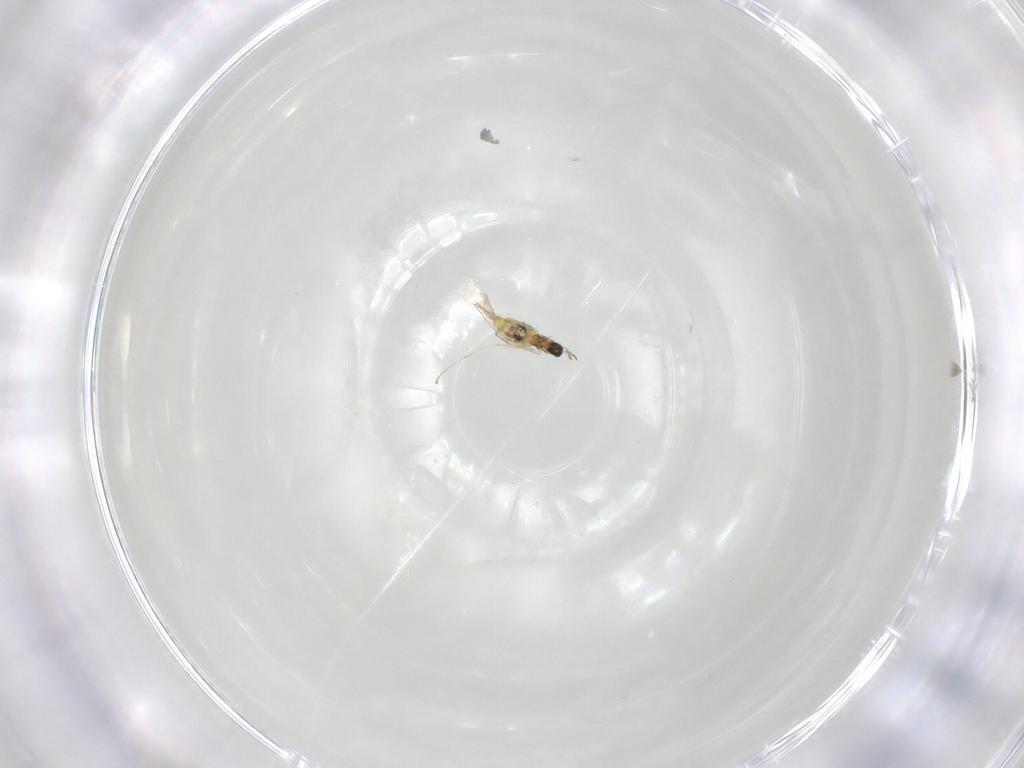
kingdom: Animalia
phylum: Arthropoda
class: Insecta
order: Diptera
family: Cecidomyiidae
